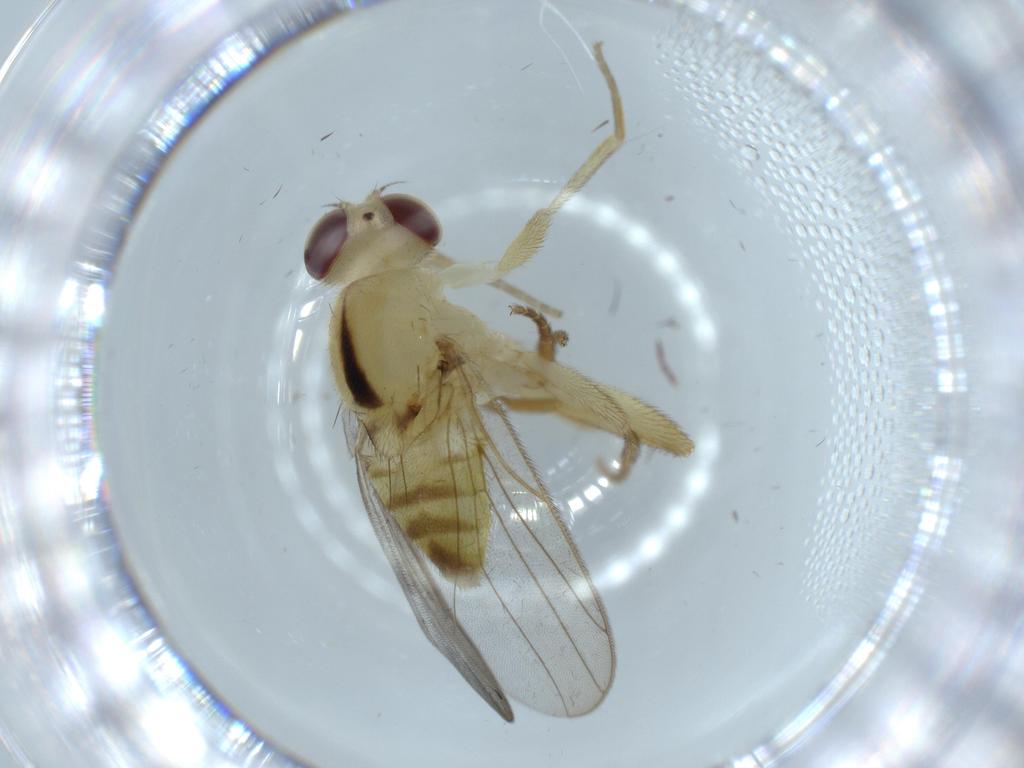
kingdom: Animalia
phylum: Arthropoda
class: Insecta
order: Diptera
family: Chloropidae
